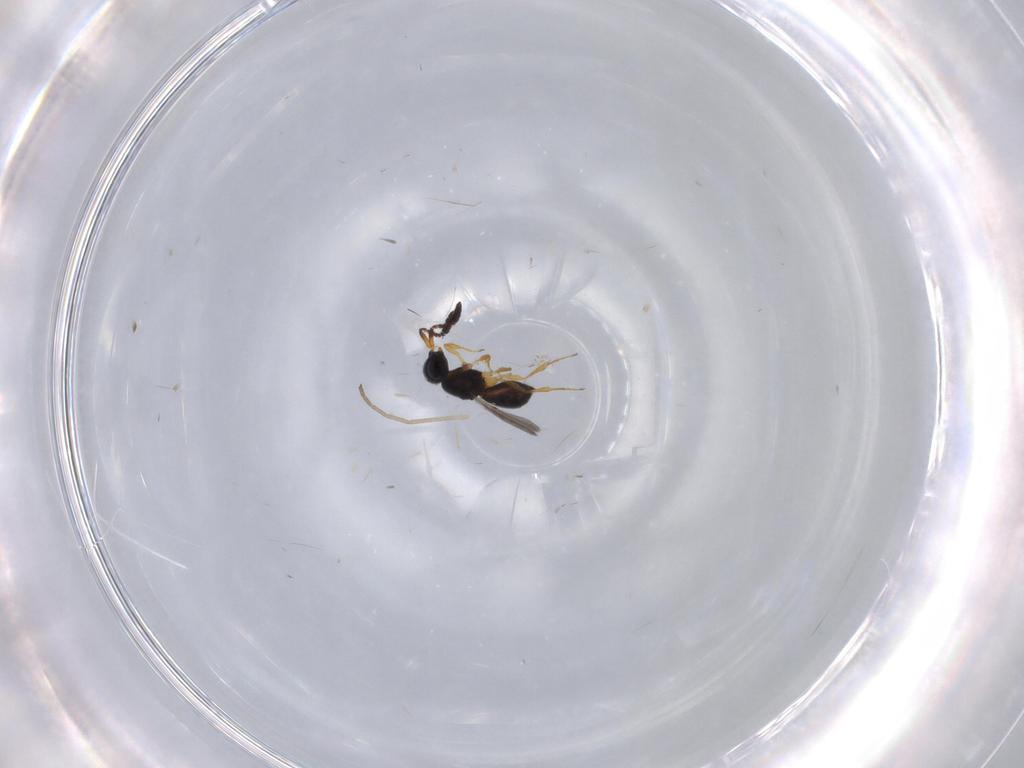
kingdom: Animalia
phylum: Arthropoda
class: Insecta
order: Hymenoptera
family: Scelionidae
